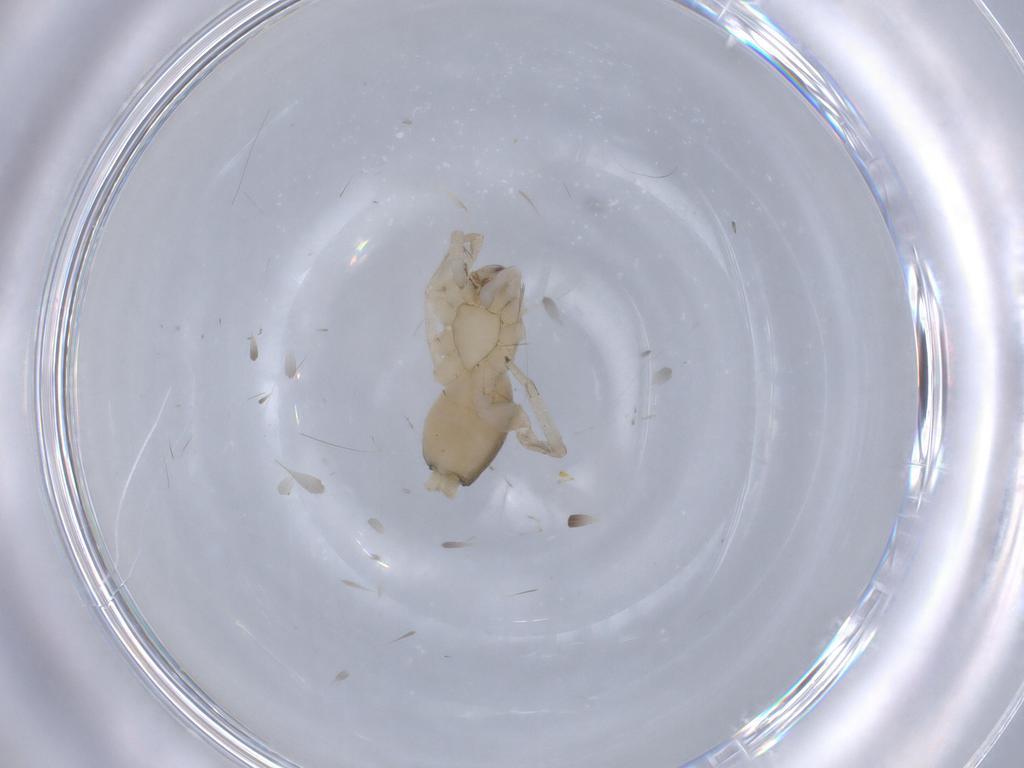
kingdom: Animalia
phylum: Arthropoda
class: Arachnida
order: Araneae
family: Corinnidae
